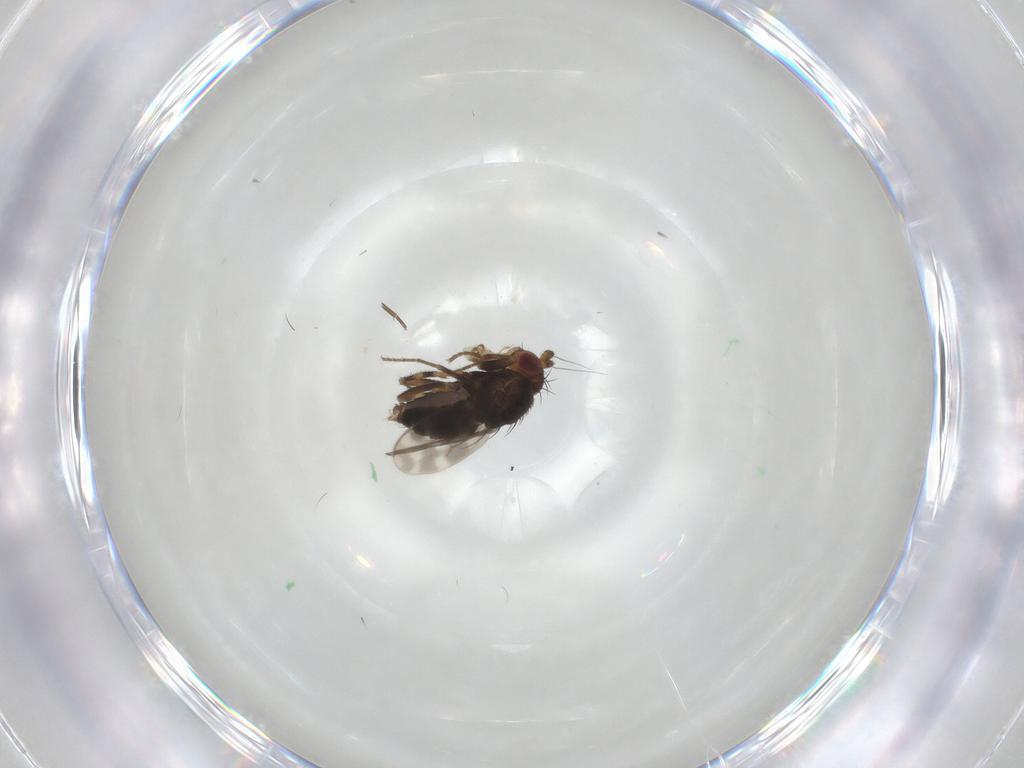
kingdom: Animalia
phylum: Arthropoda
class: Insecta
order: Diptera
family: Sphaeroceridae
